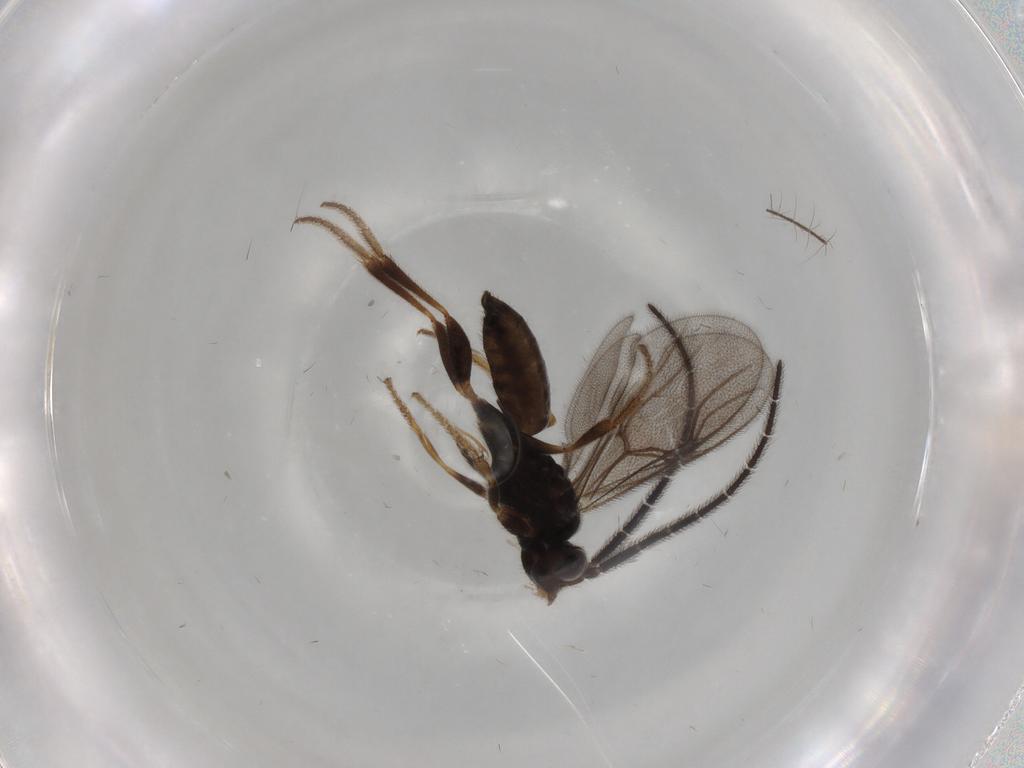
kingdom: Animalia
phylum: Arthropoda
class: Insecta
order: Hymenoptera
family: Dryinidae
